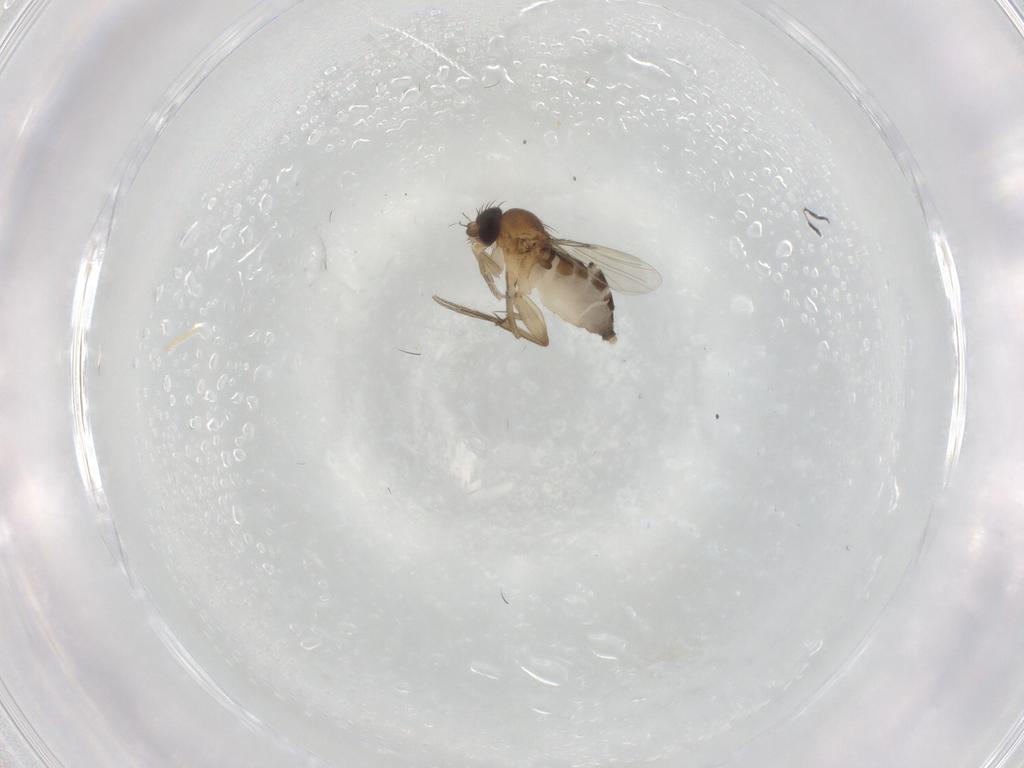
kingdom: Animalia
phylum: Arthropoda
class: Insecta
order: Diptera
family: Phoridae
